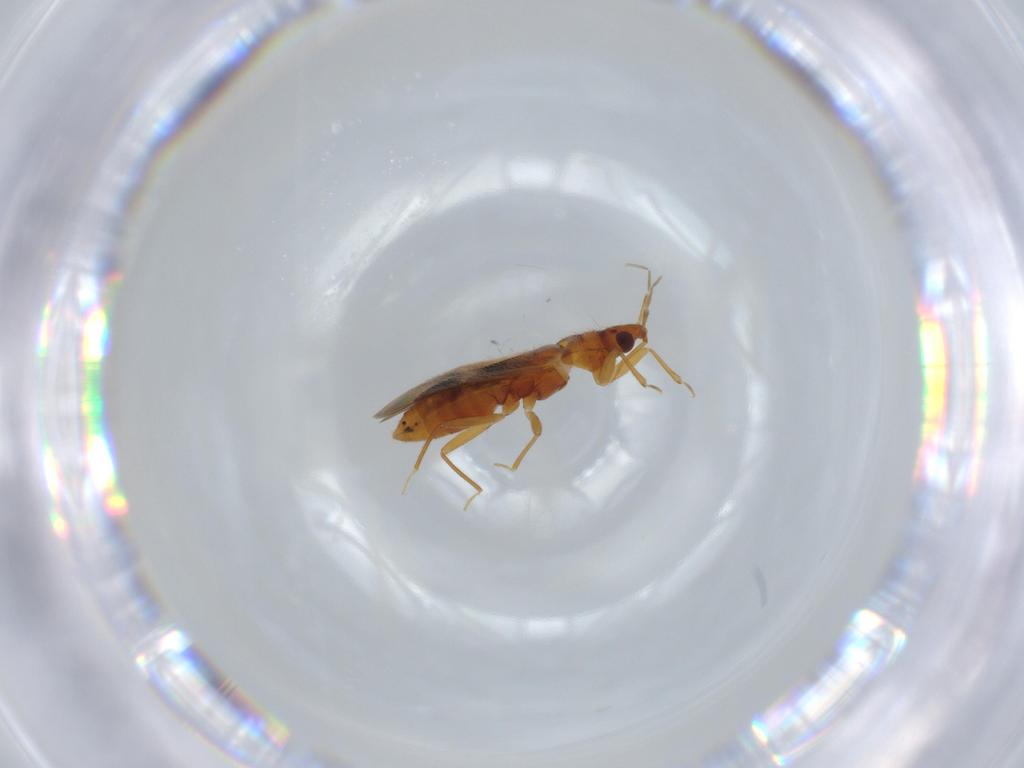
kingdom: Animalia
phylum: Arthropoda
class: Insecta
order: Hemiptera
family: Anthocoridae
